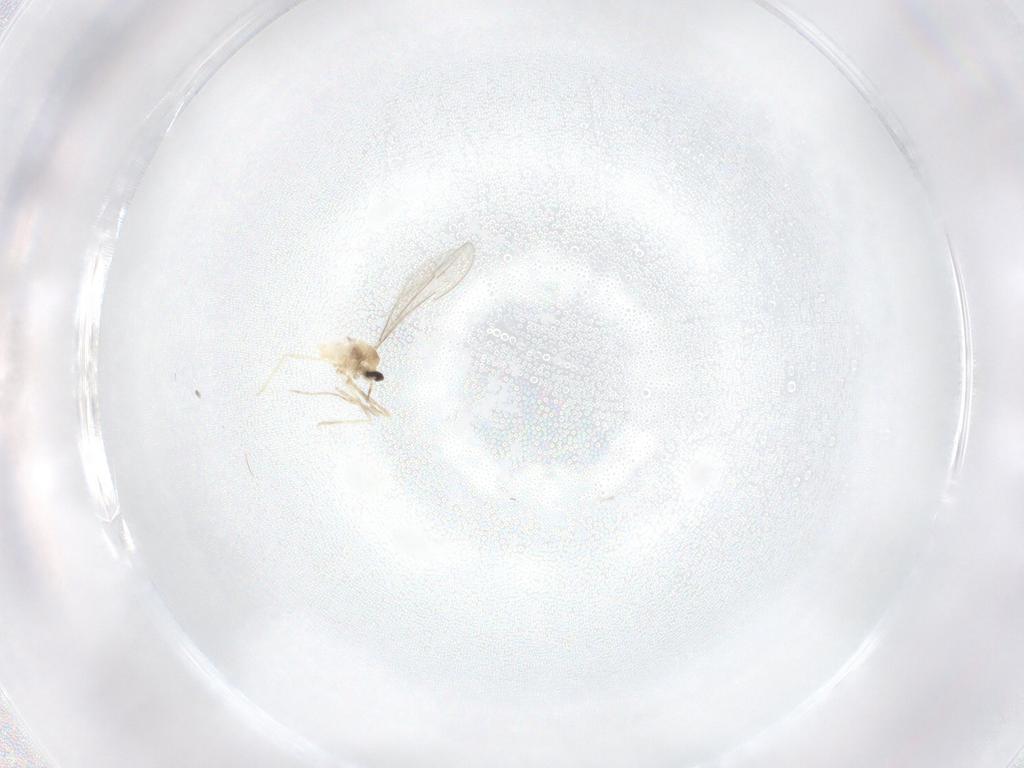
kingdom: Animalia
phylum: Arthropoda
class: Insecta
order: Diptera
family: Cecidomyiidae
